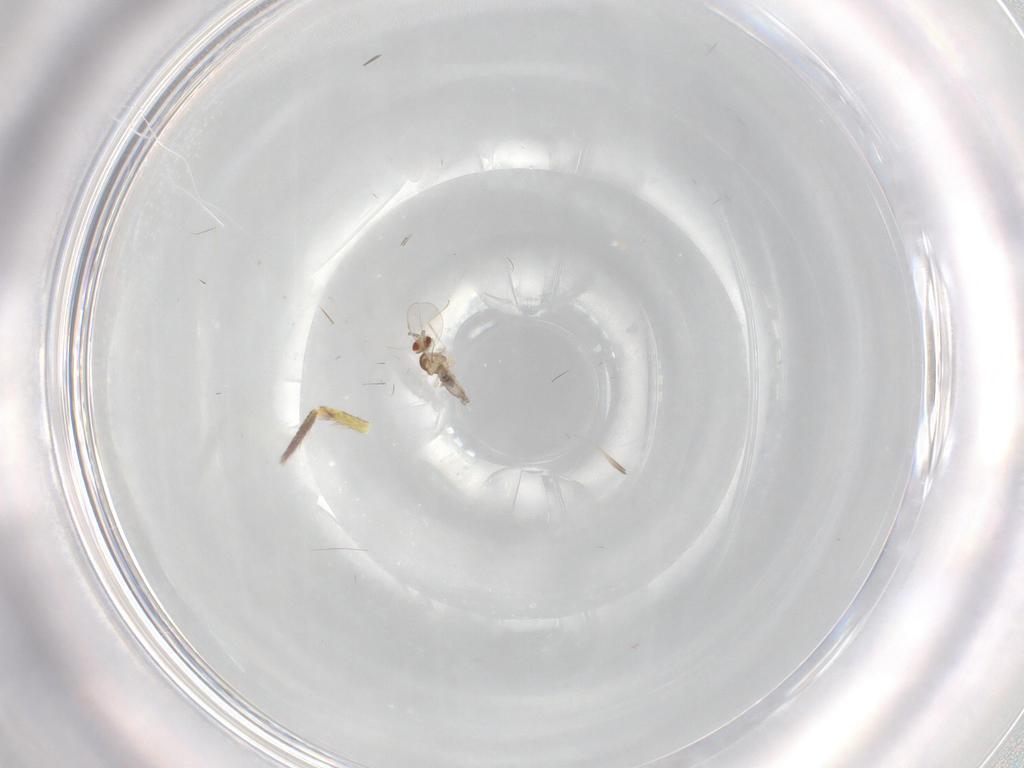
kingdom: Animalia
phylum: Arthropoda
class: Insecta
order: Diptera
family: Cecidomyiidae
